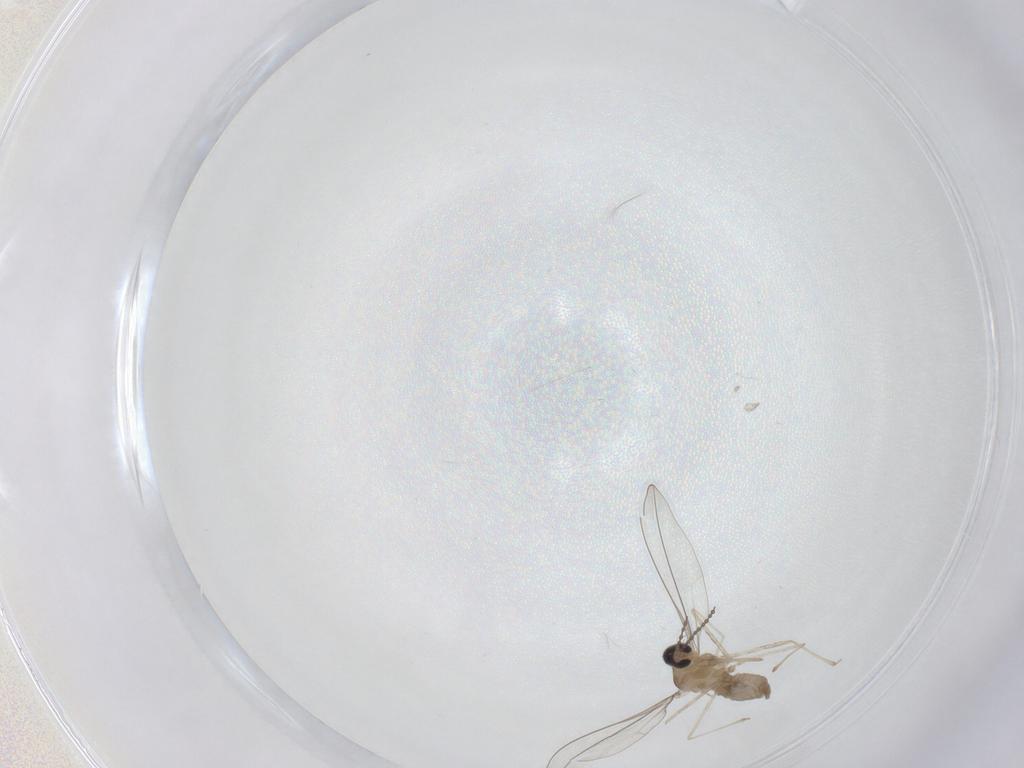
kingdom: Animalia
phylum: Arthropoda
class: Insecta
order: Diptera
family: Cecidomyiidae
